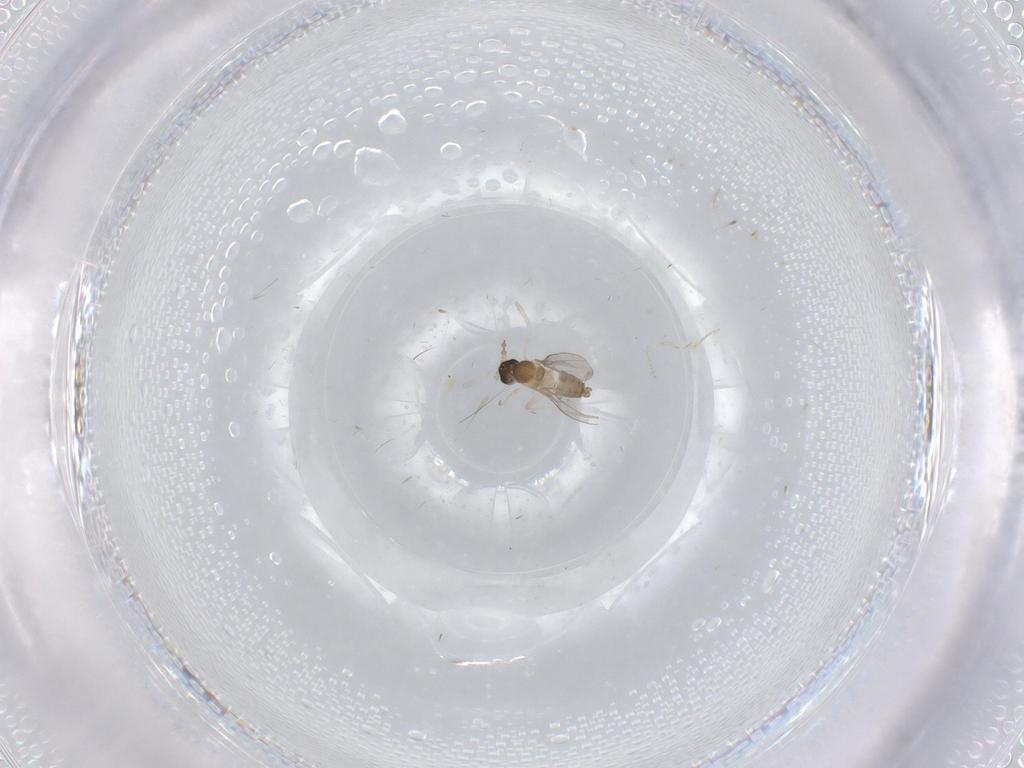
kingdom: Animalia
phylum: Arthropoda
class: Insecta
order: Diptera
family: Cecidomyiidae
